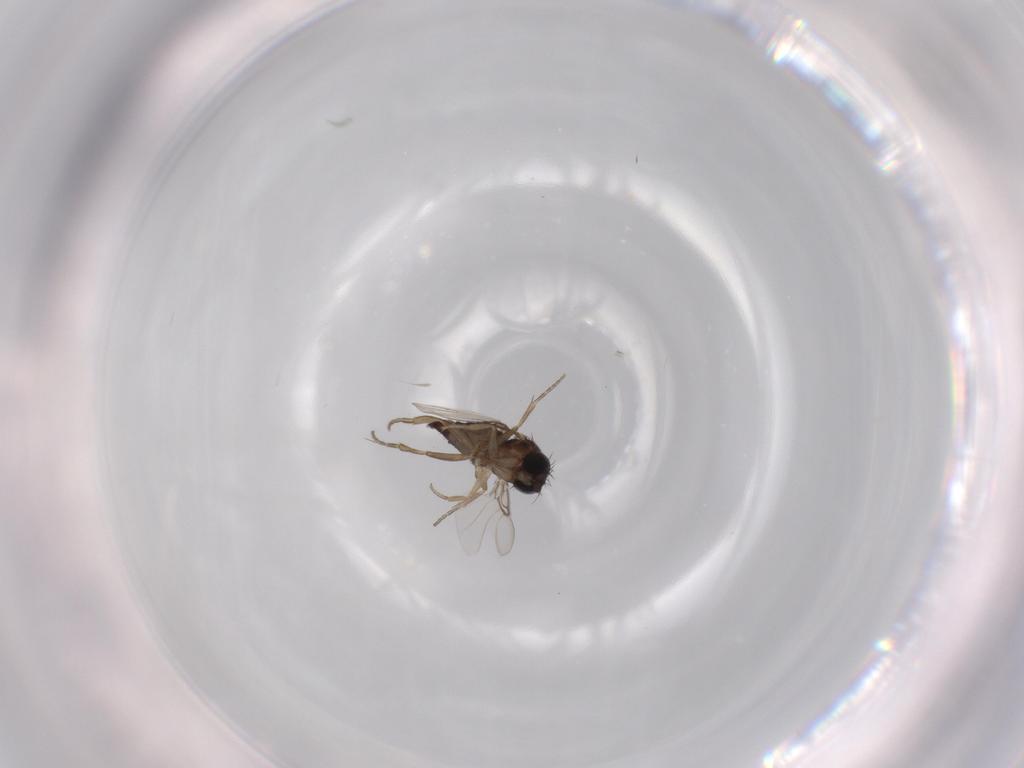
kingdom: Animalia
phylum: Arthropoda
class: Insecta
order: Diptera
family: Phoridae
